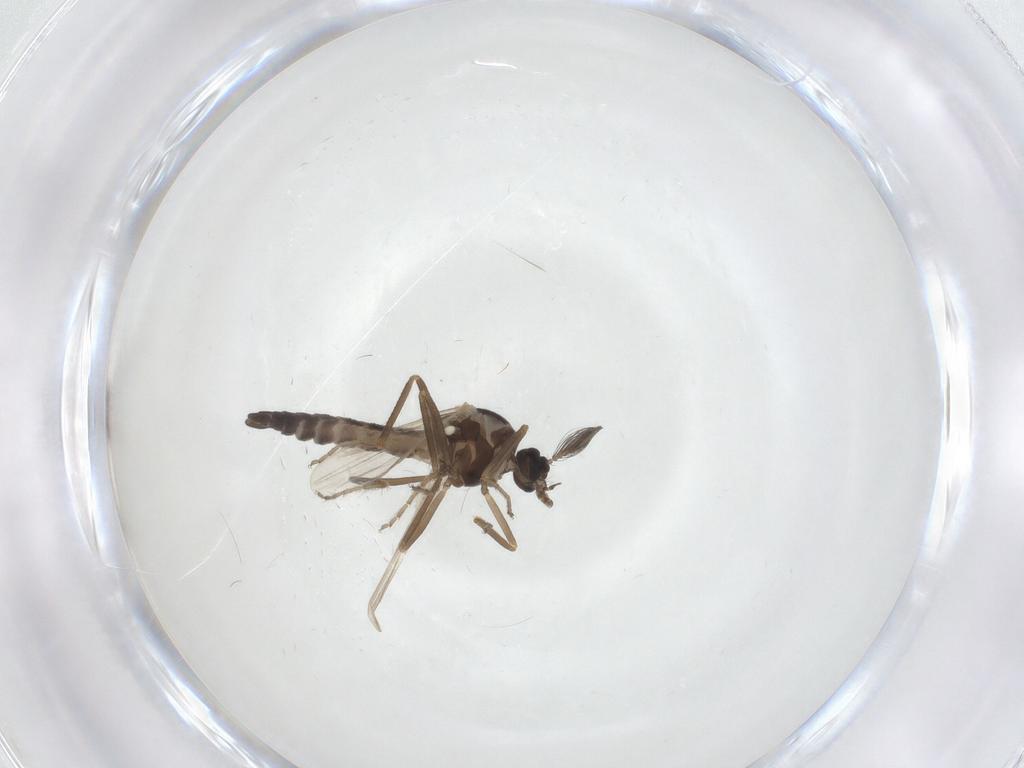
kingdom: Animalia
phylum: Arthropoda
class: Insecta
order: Diptera
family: Ceratopogonidae
